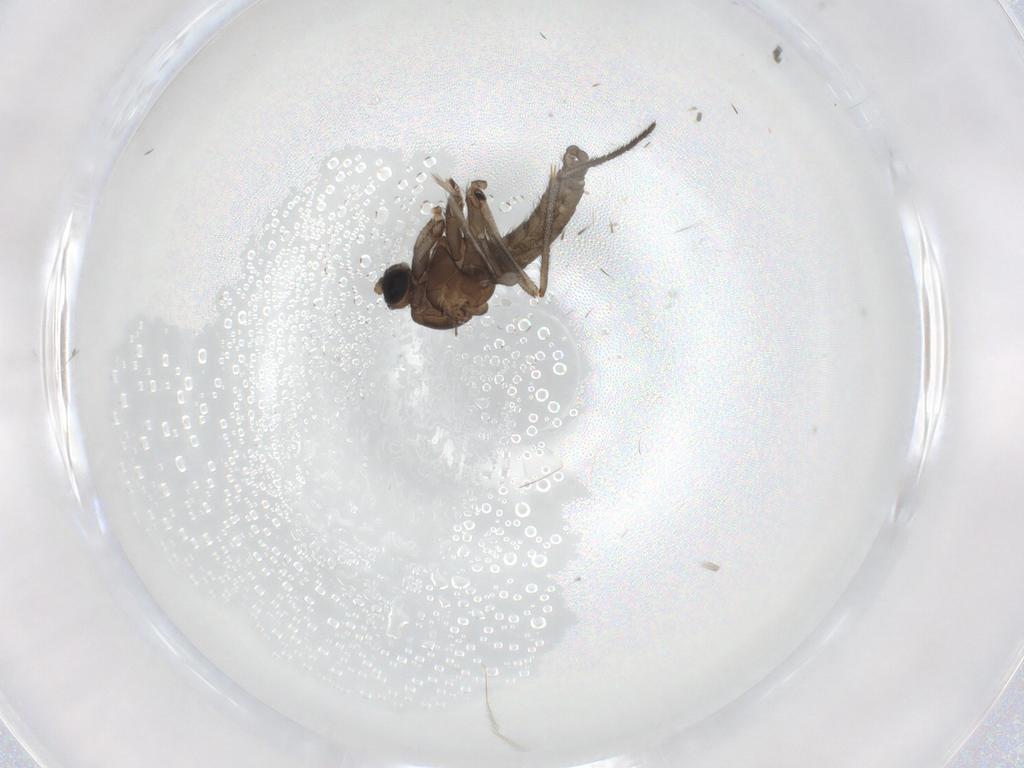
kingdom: Animalia
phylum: Arthropoda
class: Insecta
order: Diptera
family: Sciaridae
